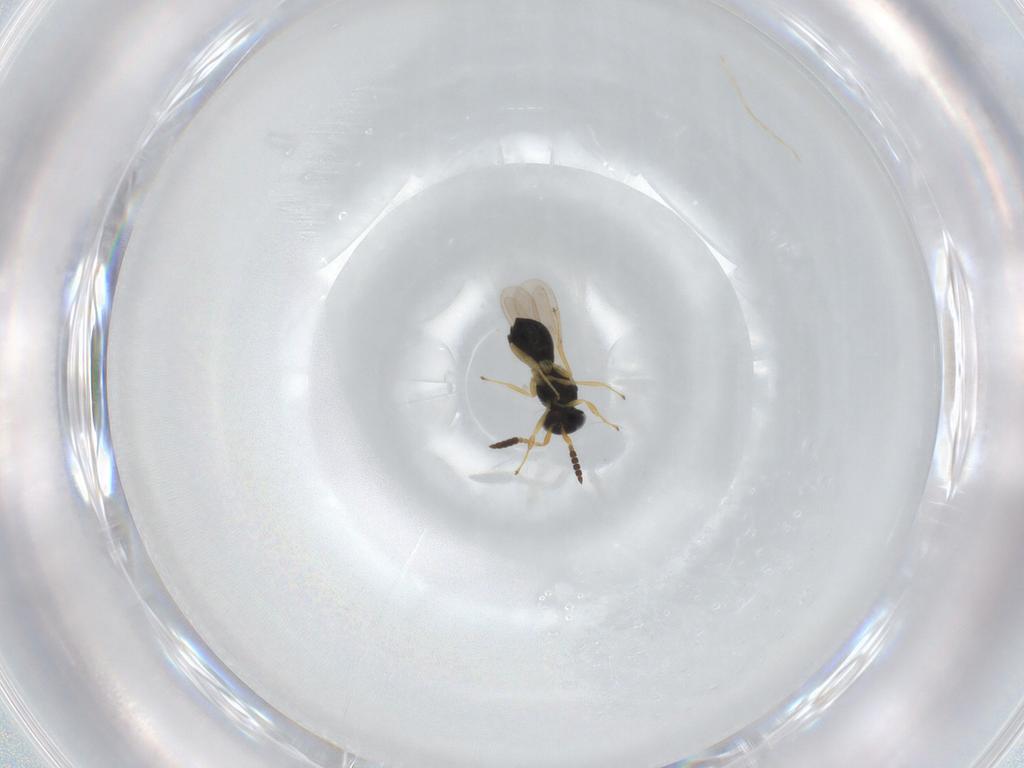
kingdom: Animalia
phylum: Arthropoda
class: Insecta
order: Hymenoptera
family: Scelionidae
